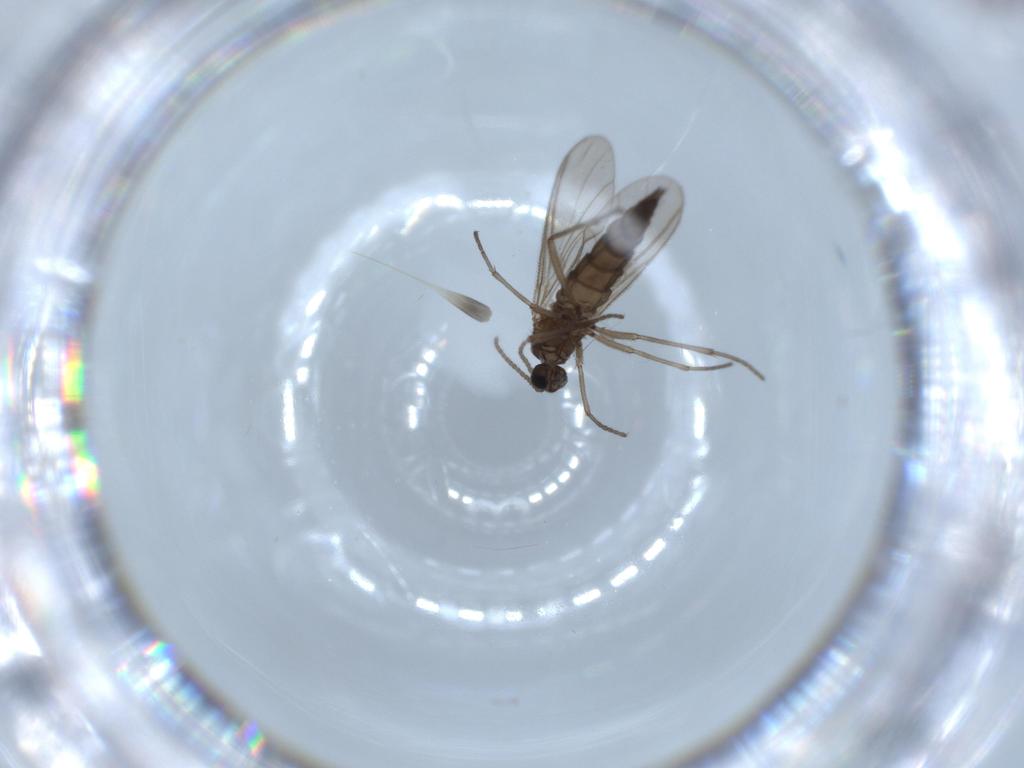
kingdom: Animalia
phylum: Arthropoda
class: Insecta
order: Diptera
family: Sciaridae
